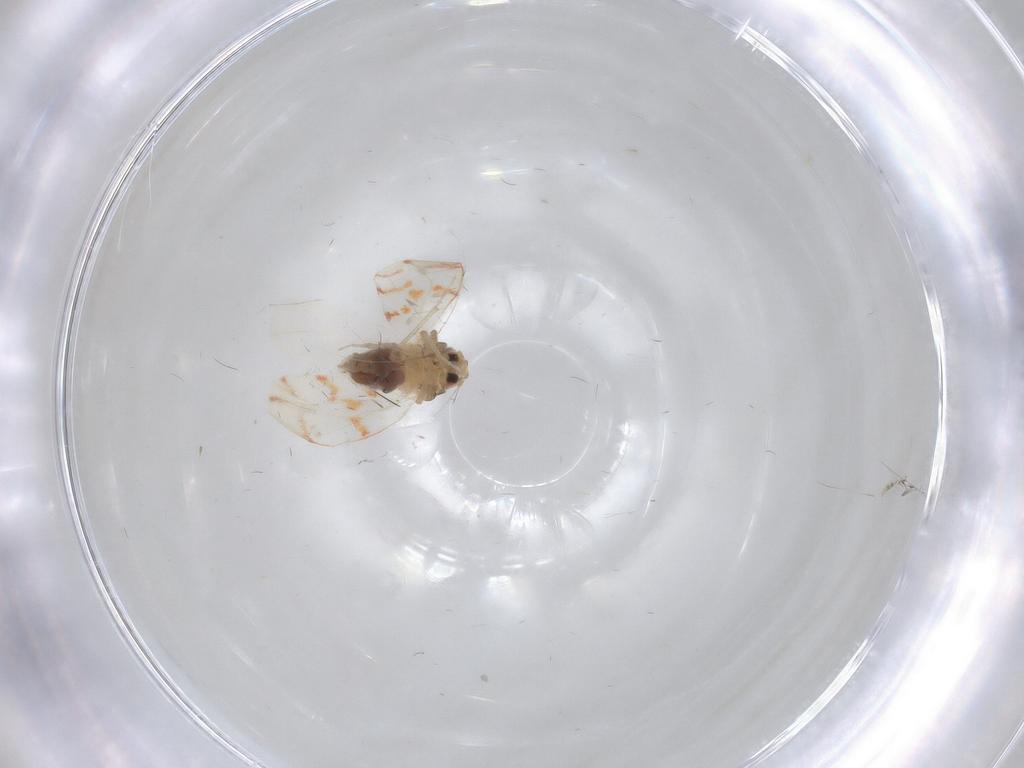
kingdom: Animalia
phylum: Arthropoda
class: Insecta
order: Hemiptera
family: Aleyrodidae
